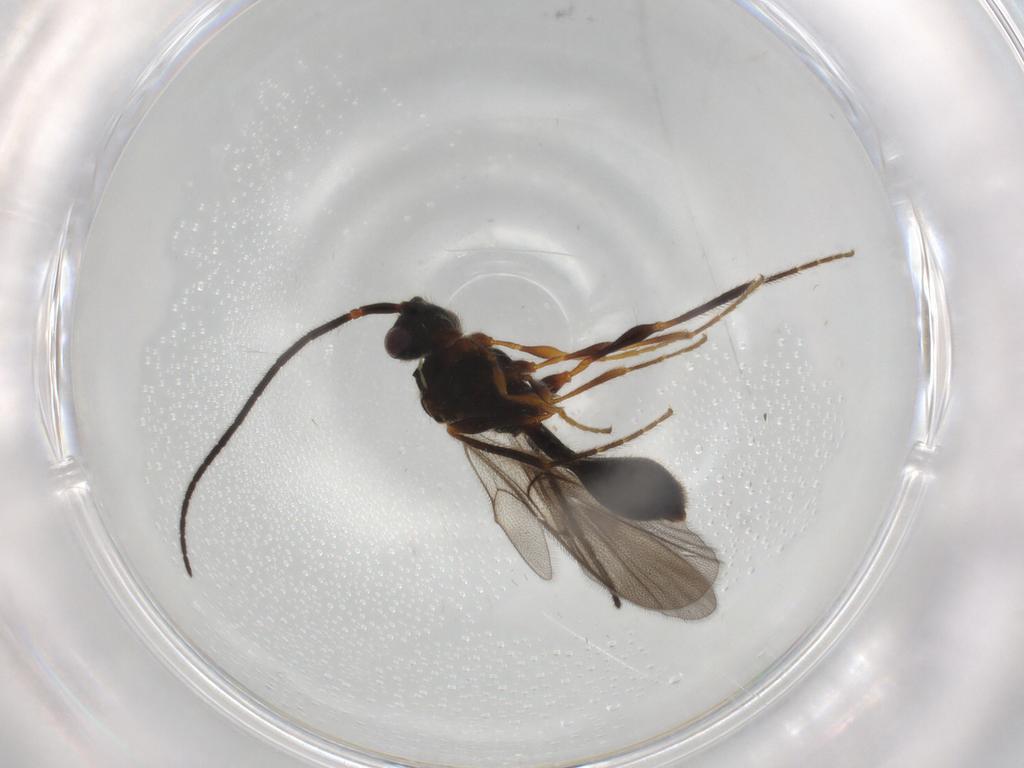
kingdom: Animalia
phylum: Arthropoda
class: Insecta
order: Hymenoptera
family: Diapriidae
